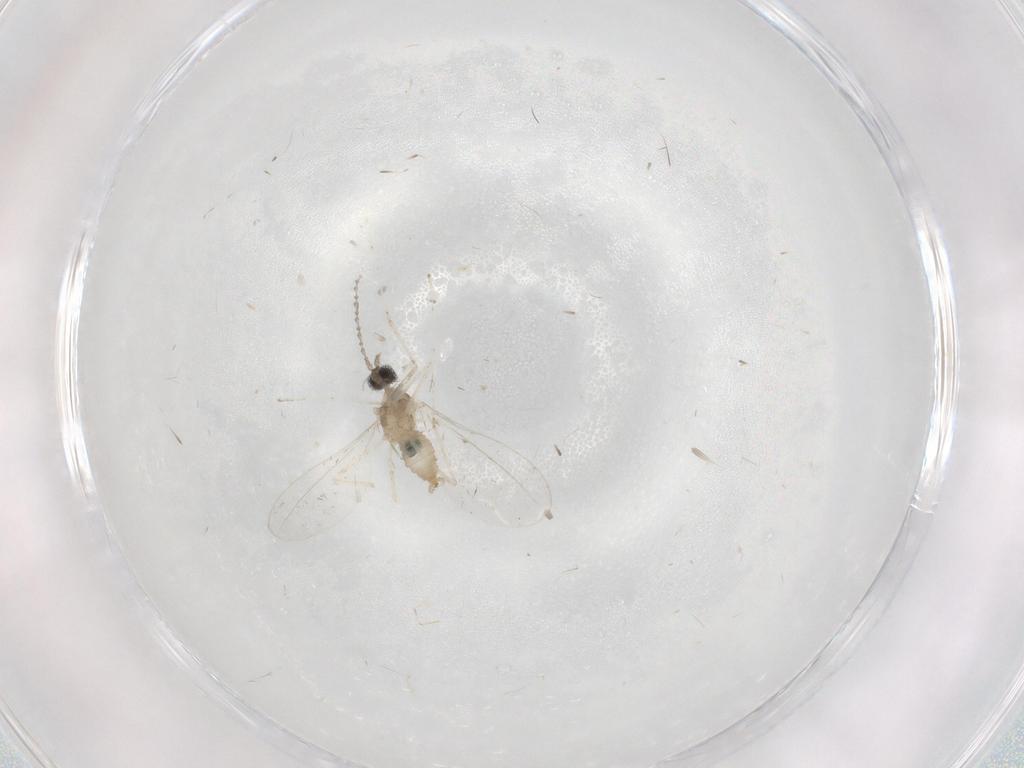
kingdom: Animalia
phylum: Arthropoda
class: Insecta
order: Diptera
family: Cecidomyiidae
